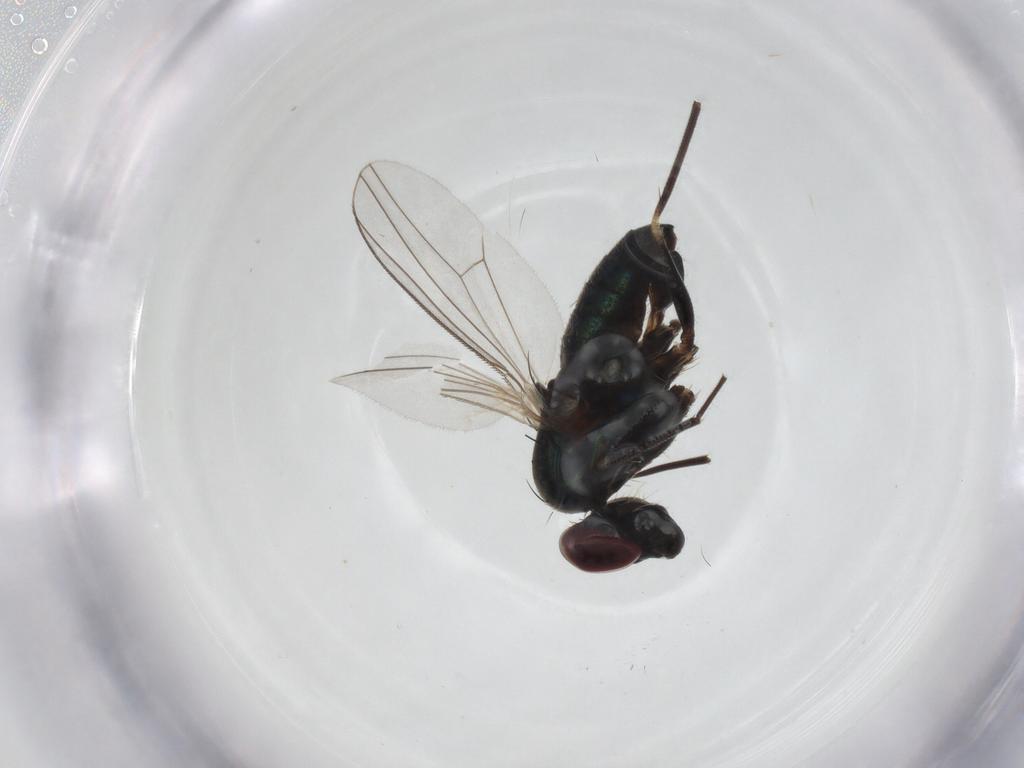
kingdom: Animalia
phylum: Arthropoda
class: Insecta
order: Diptera
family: Dolichopodidae
